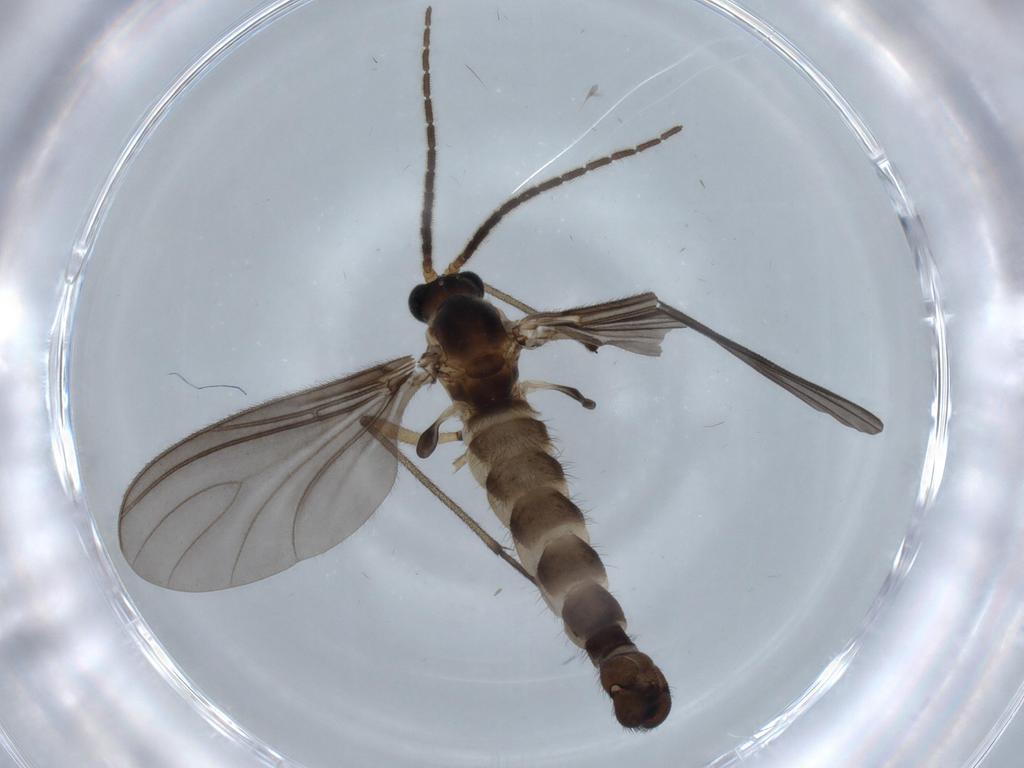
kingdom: Animalia
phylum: Arthropoda
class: Insecta
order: Diptera
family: Sciaridae
